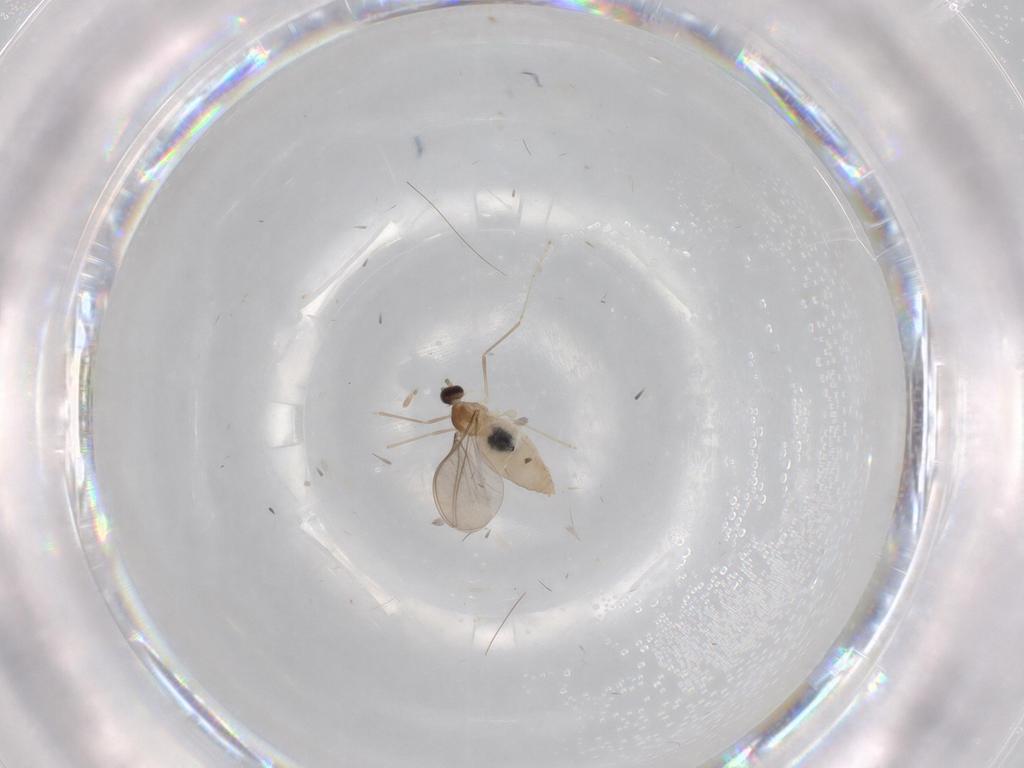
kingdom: Animalia
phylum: Arthropoda
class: Insecta
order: Diptera
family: Cecidomyiidae
